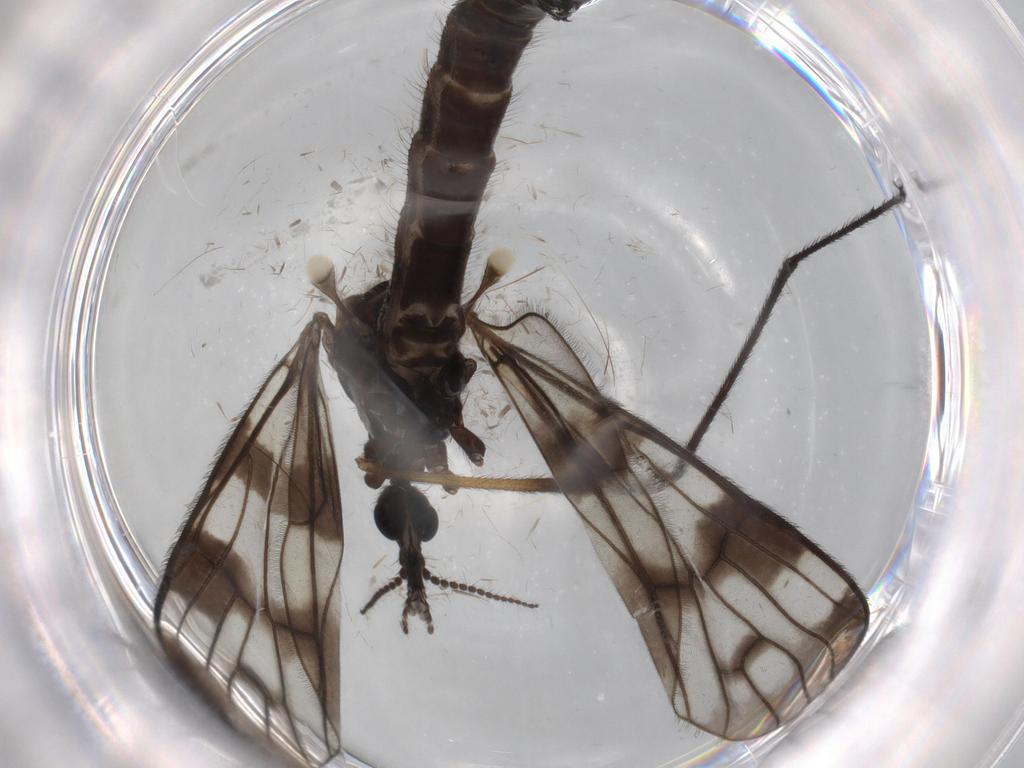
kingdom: Animalia
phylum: Arthropoda
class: Insecta
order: Diptera
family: Limoniidae
